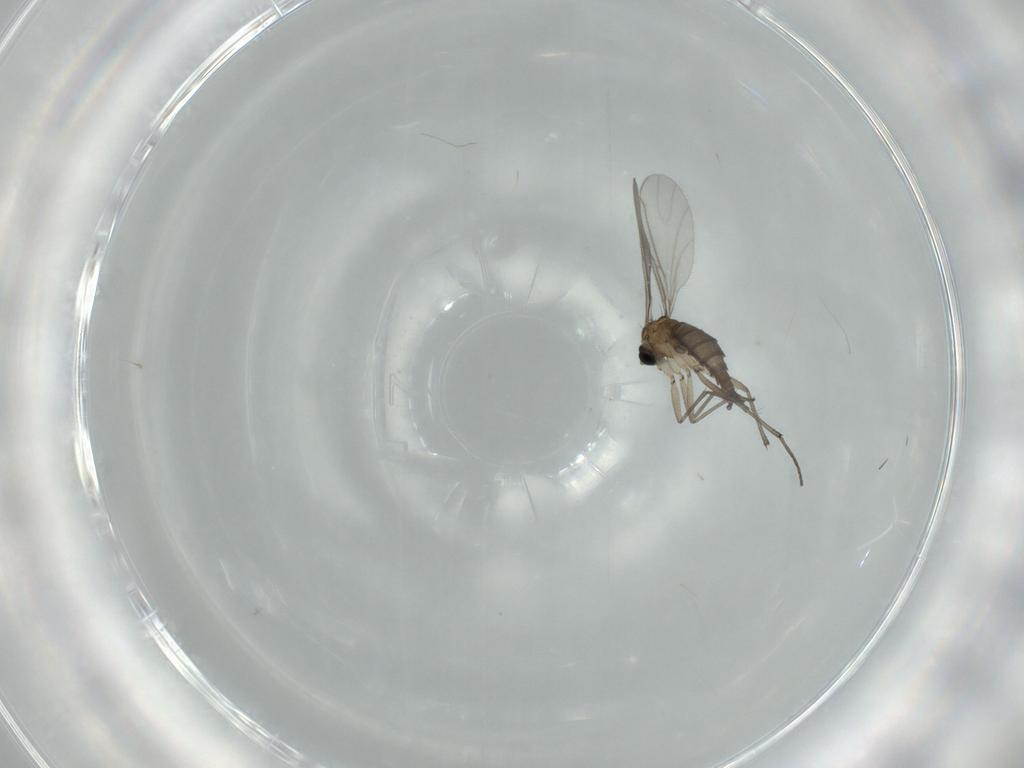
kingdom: Animalia
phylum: Arthropoda
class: Insecta
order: Diptera
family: Sciaridae
